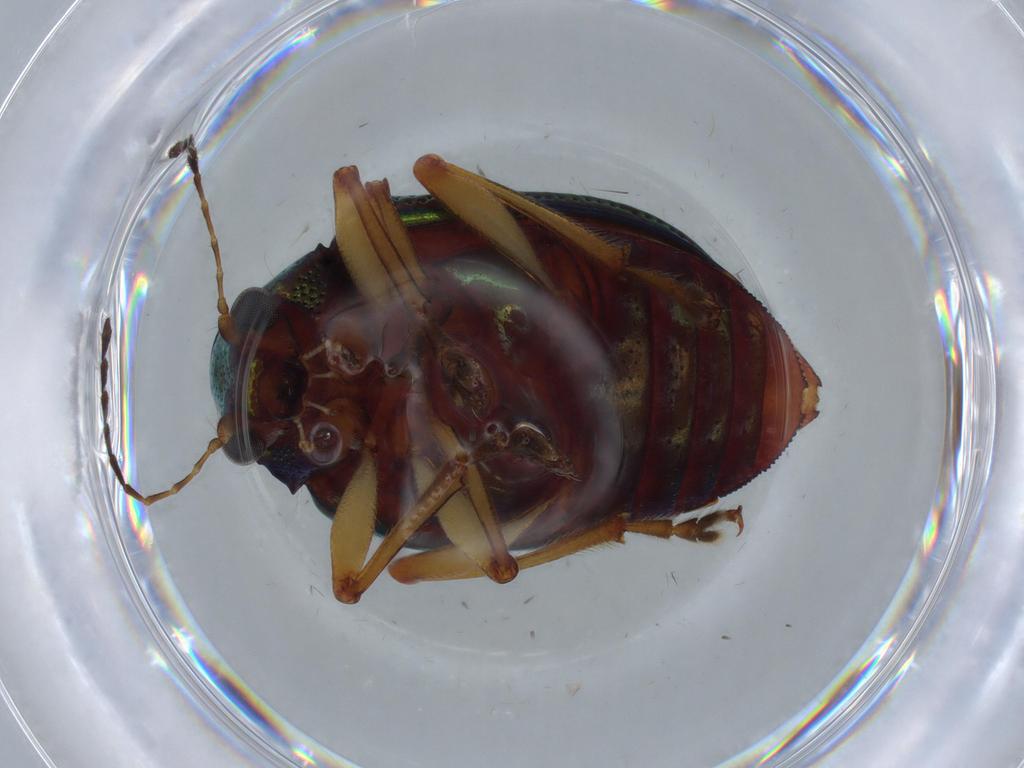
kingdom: Animalia
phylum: Arthropoda
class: Insecta
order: Coleoptera
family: Chrysomelidae
